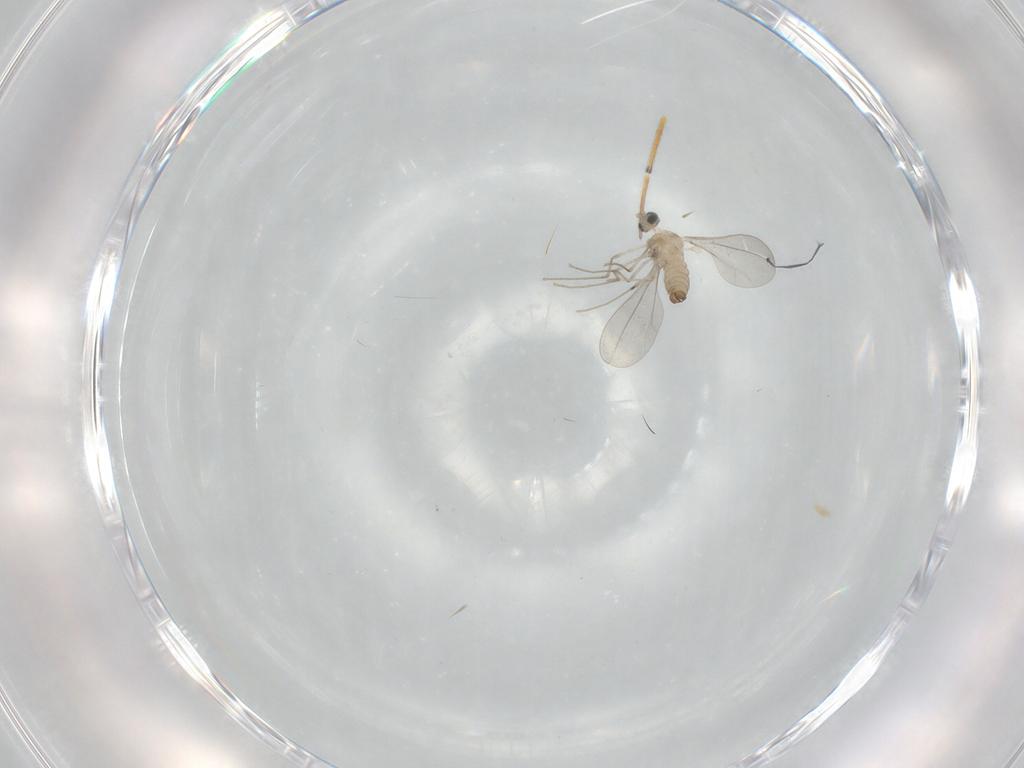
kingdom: Animalia
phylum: Arthropoda
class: Insecta
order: Diptera
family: Cecidomyiidae
